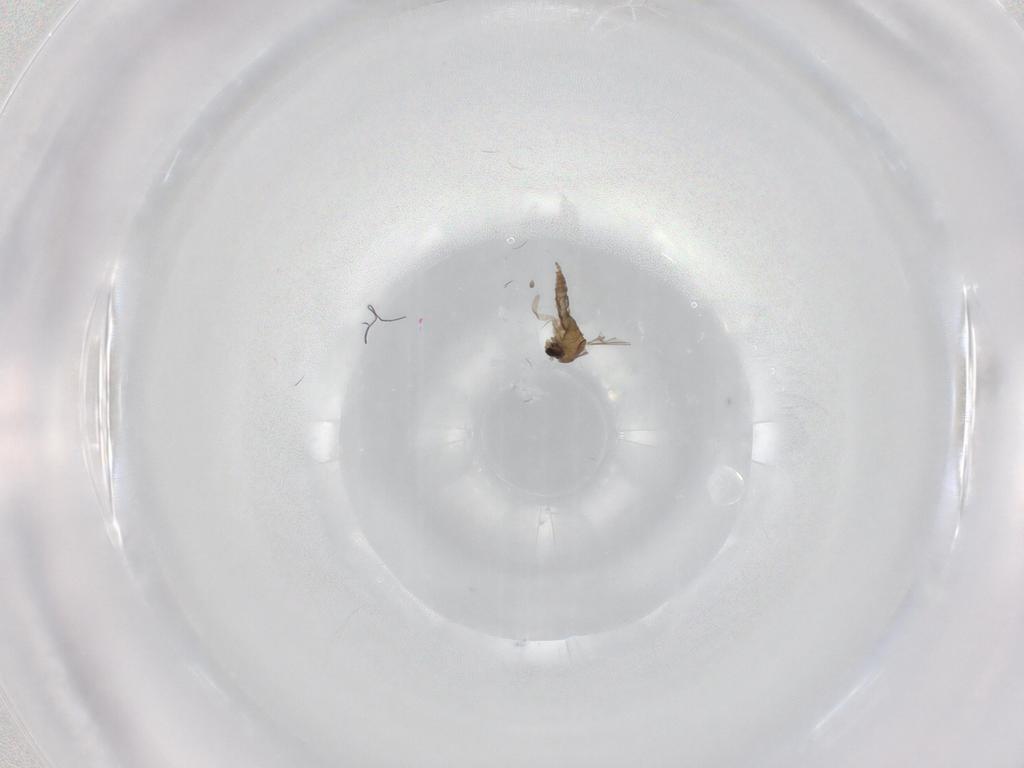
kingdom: Animalia
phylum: Arthropoda
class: Insecta
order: Diptera
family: Cecidomyiidae
